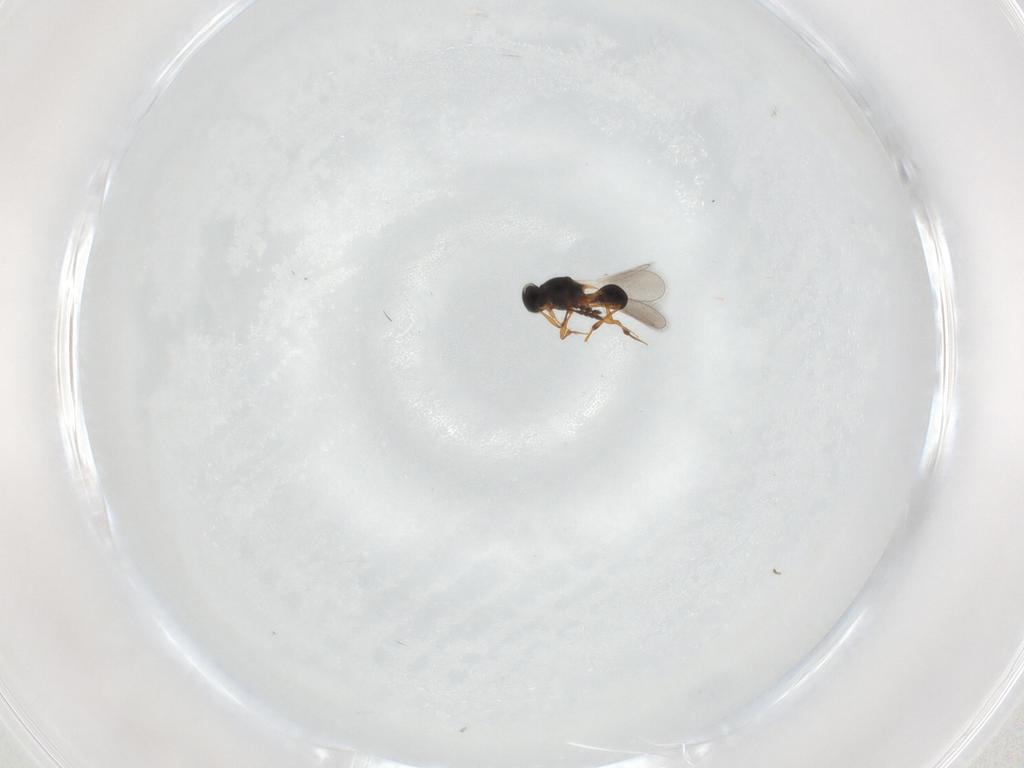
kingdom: Animalia
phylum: Arthropoda
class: Insecta
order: Hymenoptera
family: Platygastridae
